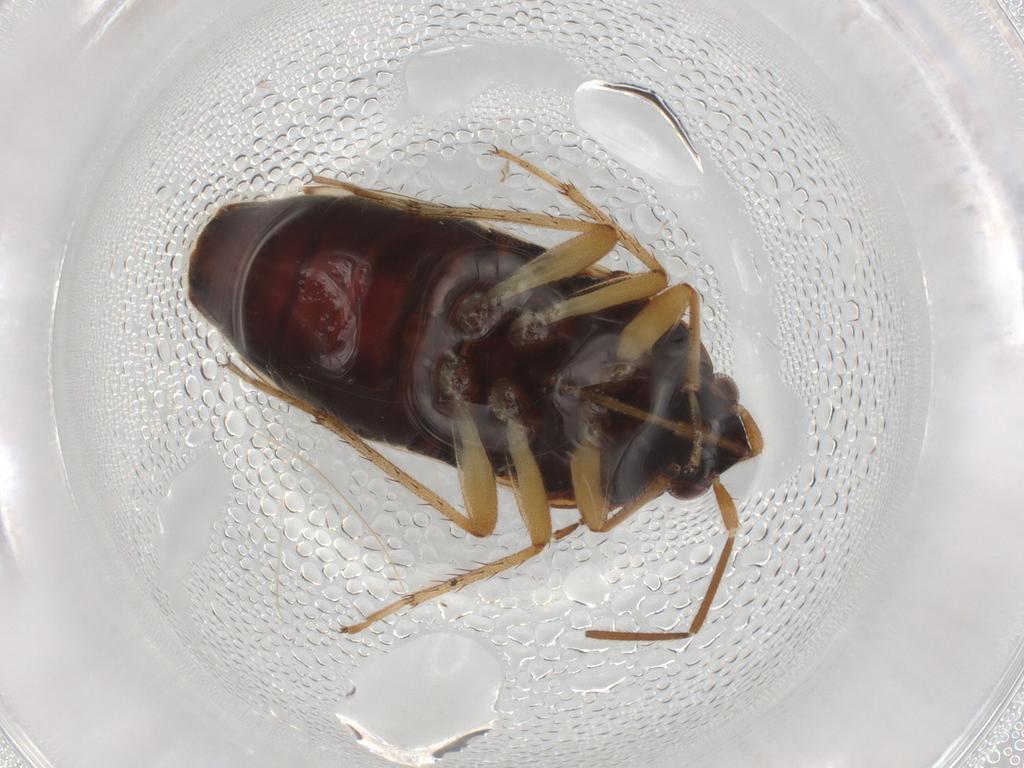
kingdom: Animalia
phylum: Arthropoda
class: Insecta
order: Hemiptera
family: Rhyparochromidae
